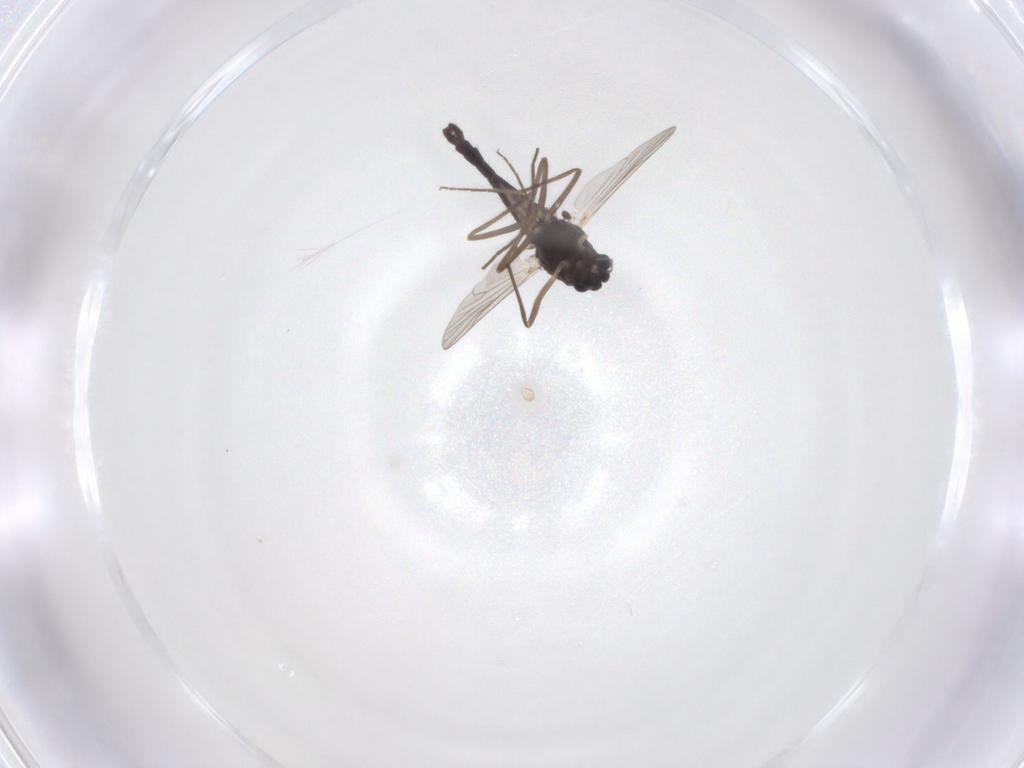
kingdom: Animalia
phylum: Arthropoda
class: Insecta
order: Diptera
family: Chironomidae
